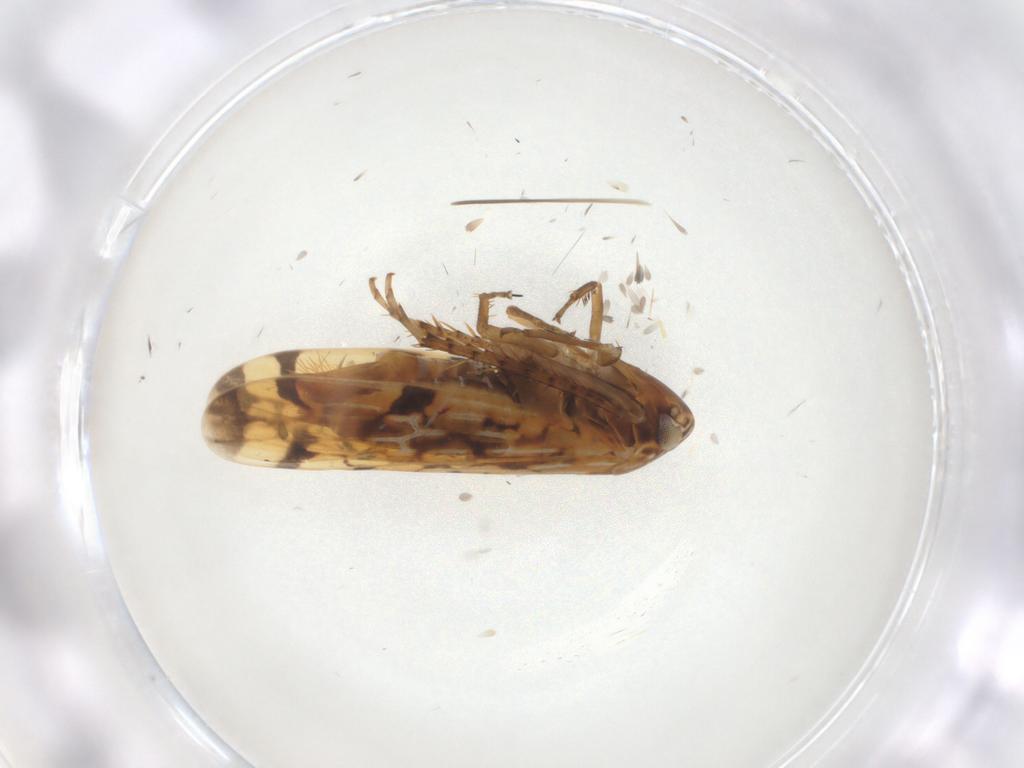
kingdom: Animalia
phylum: Arthropoda
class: Insecta
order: Hemiptera
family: Cicadellidae
